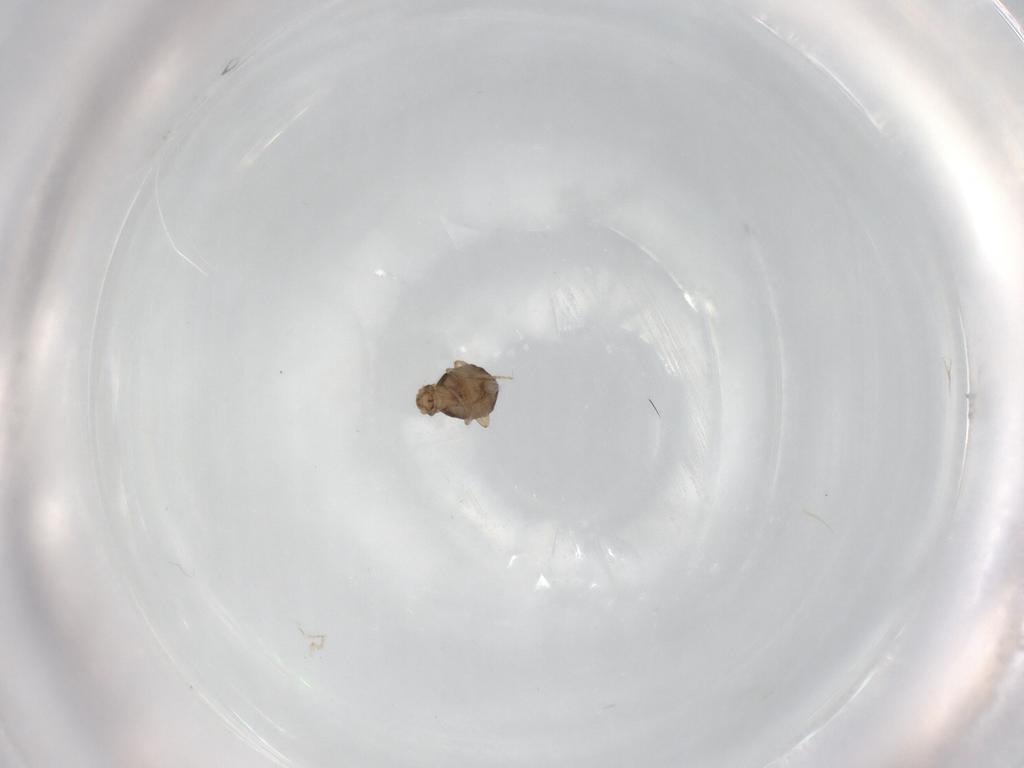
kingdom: Animalia
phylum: Arthropoda
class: Insecta
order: Diptera
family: Phoridae
